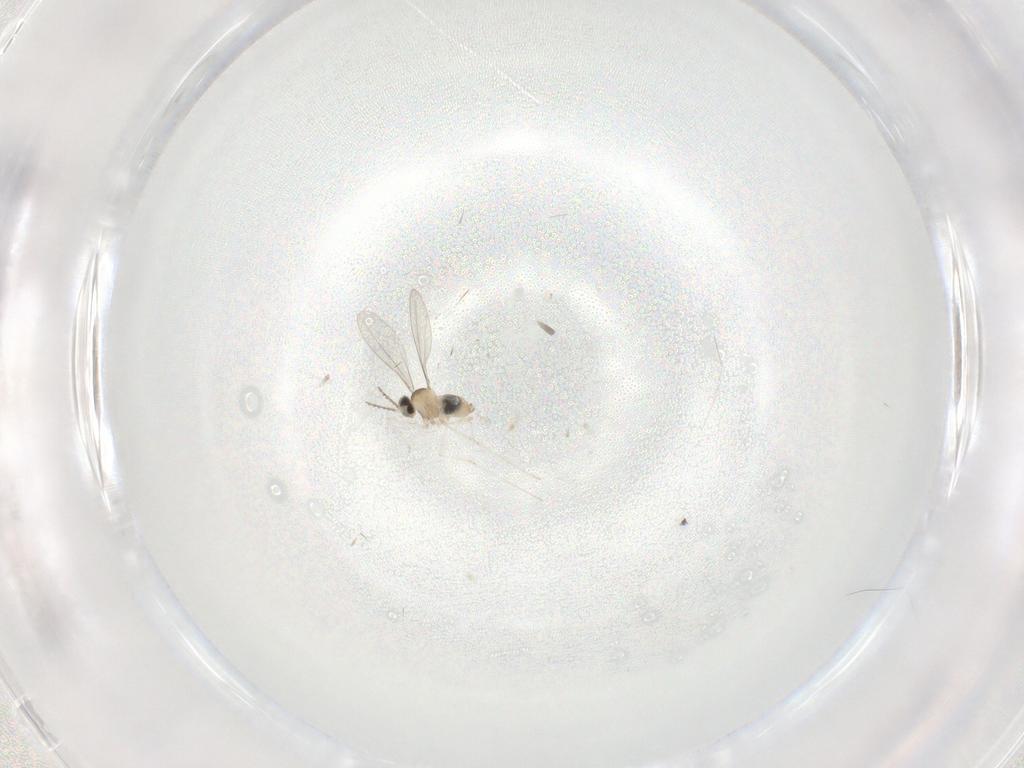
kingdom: Animalia
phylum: Arthropoda
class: Insecta
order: Diptera
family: Cecidomyiidae
